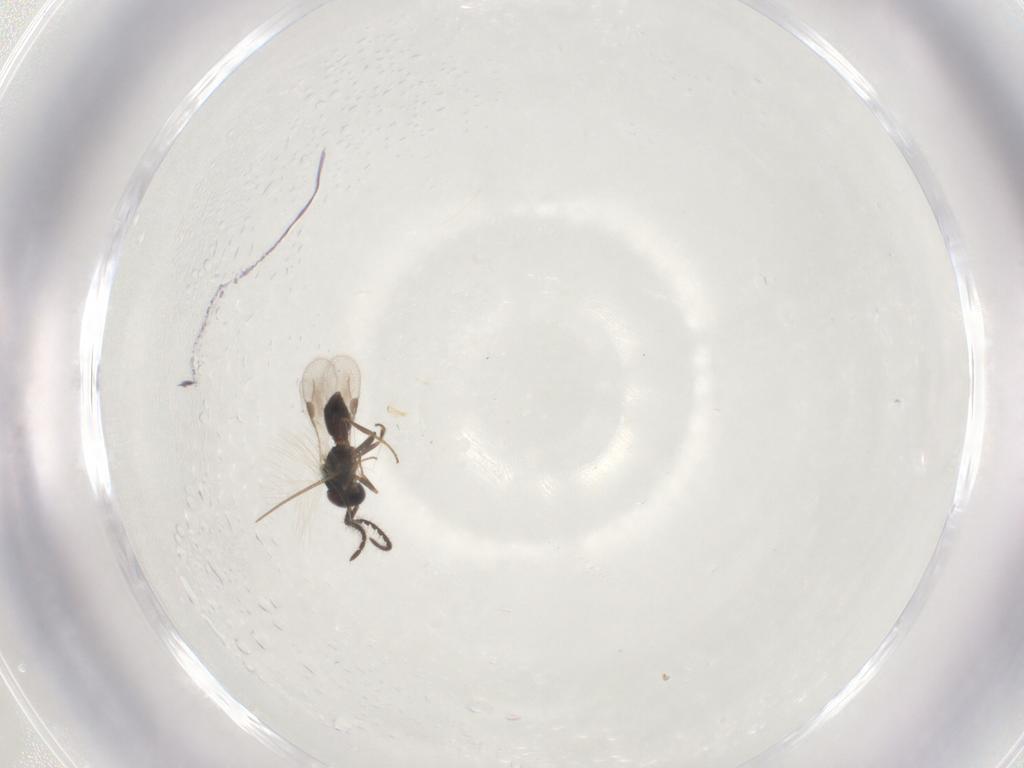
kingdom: Animalia
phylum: Arthropoda
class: Insecta
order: Hymenoptera
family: Megaspilidae
